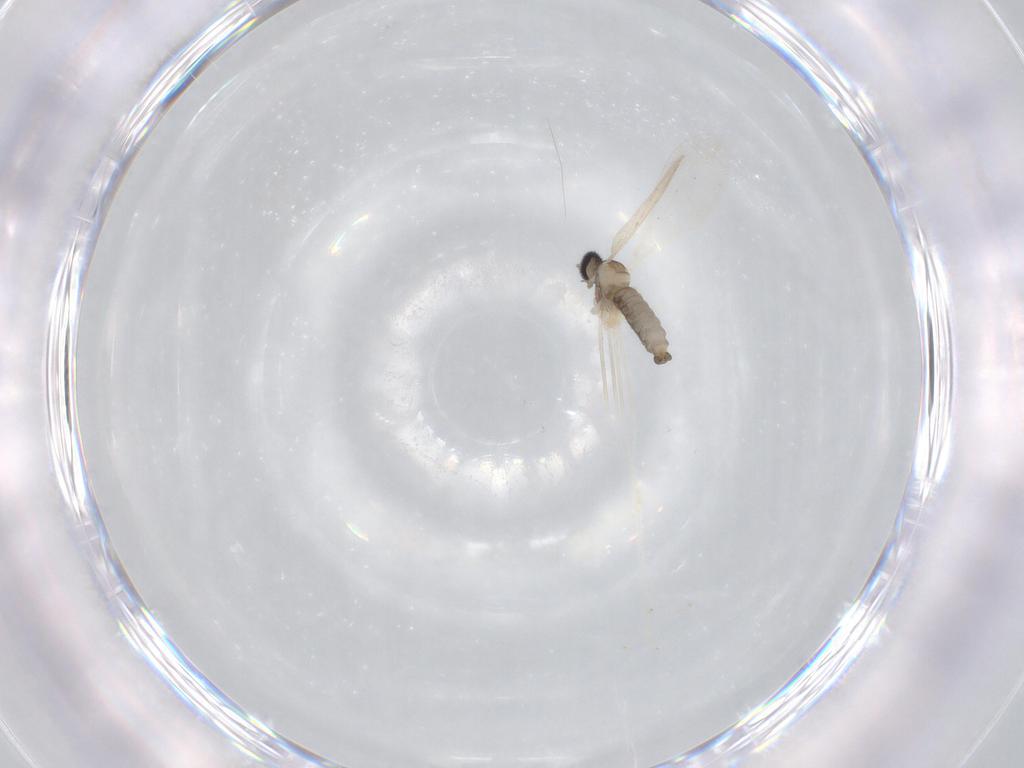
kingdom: Animalia
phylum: Arthropoda
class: Insecta
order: Diptera
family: Cecidomyiidae
